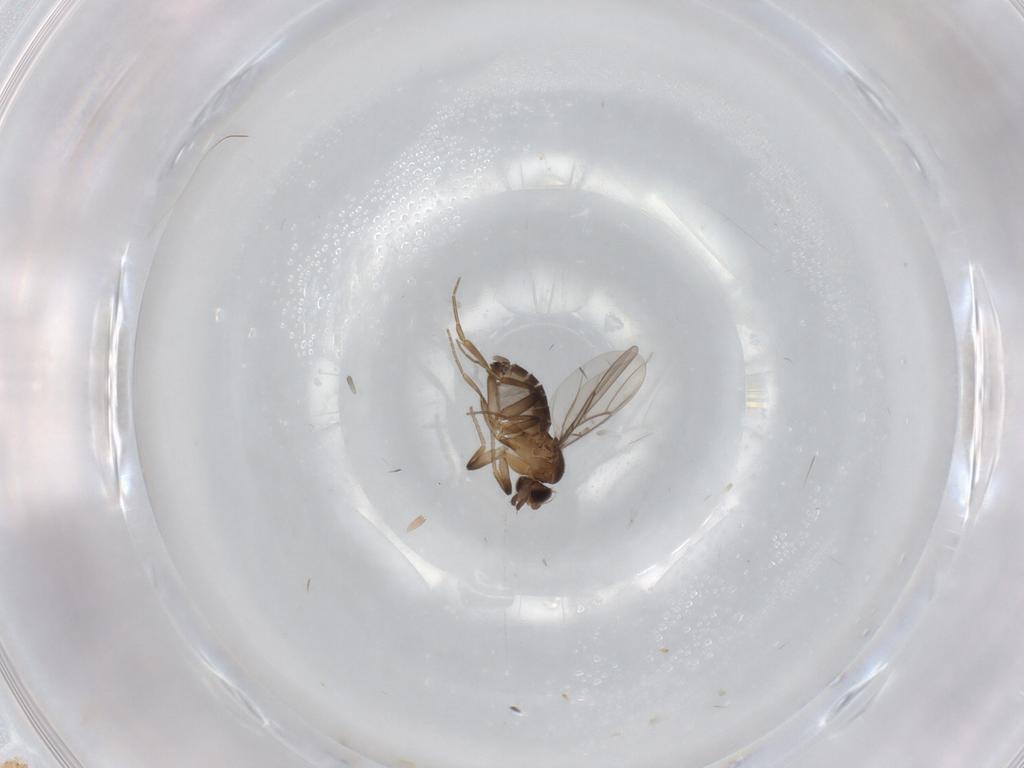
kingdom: Animalia
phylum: Arthropoda
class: Insecta
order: Diptera
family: Phoridae
